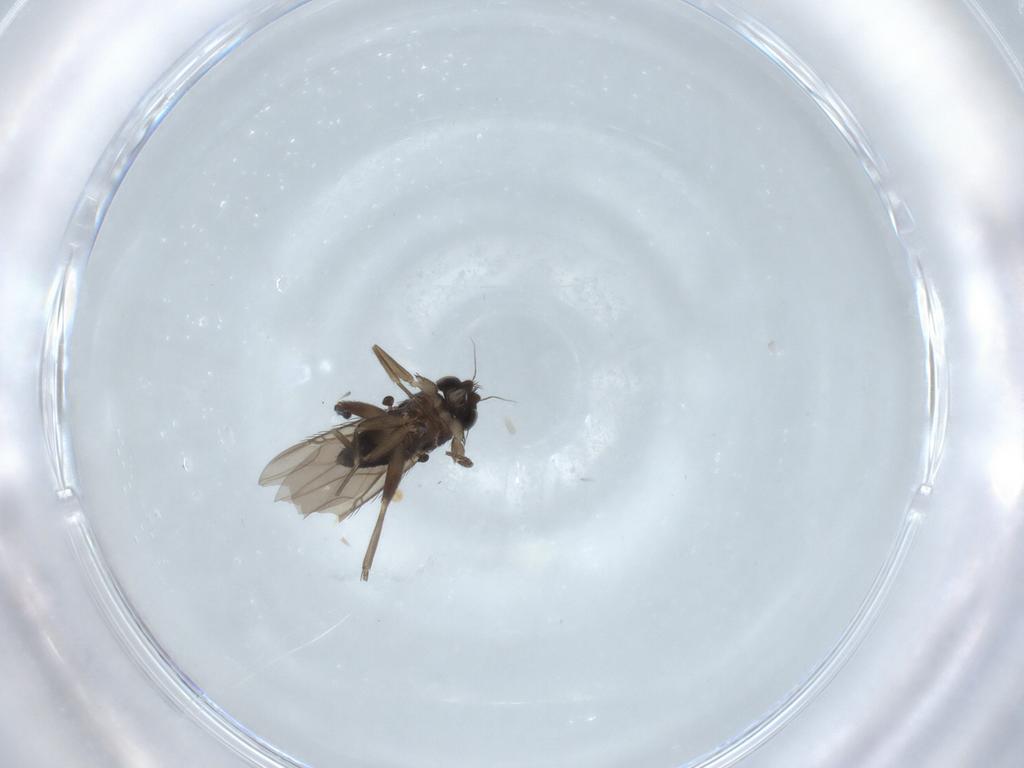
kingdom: Animalia
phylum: Arthropoda
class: Insecta
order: Diptera
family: Phoridae
